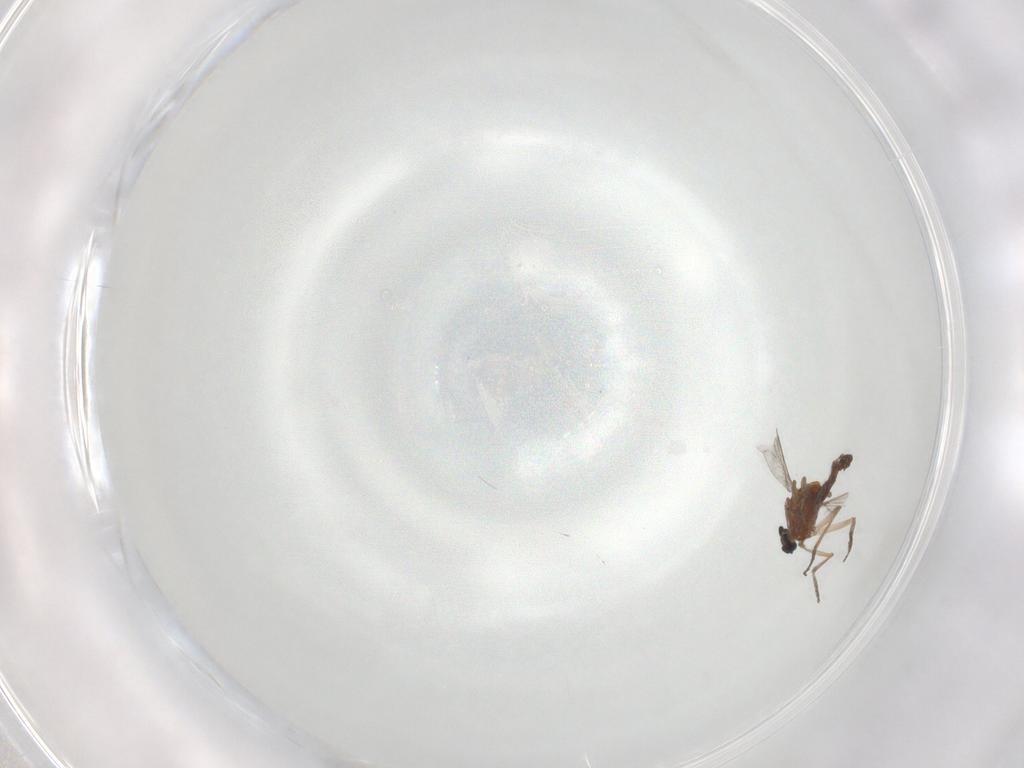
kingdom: Animalia
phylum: Arthropoda
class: Insecta
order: Diptera
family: Ceratopogonidae
